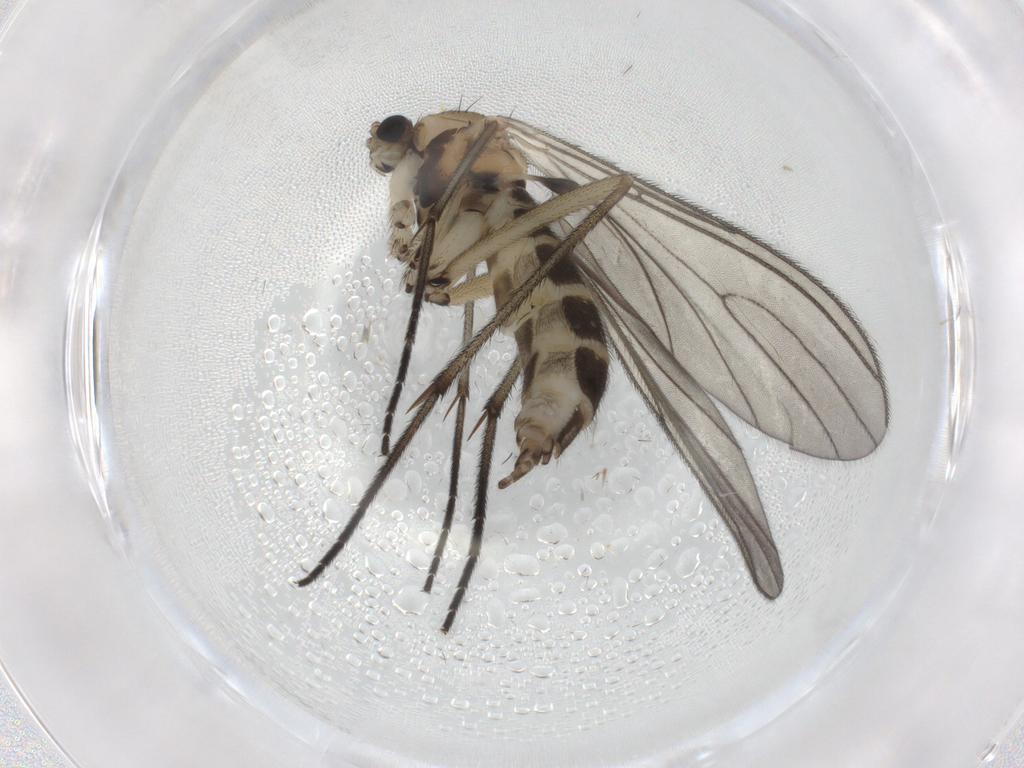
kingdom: Animalia
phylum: Arthropoda
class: Insecta
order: Diptera
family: Sciaridae
